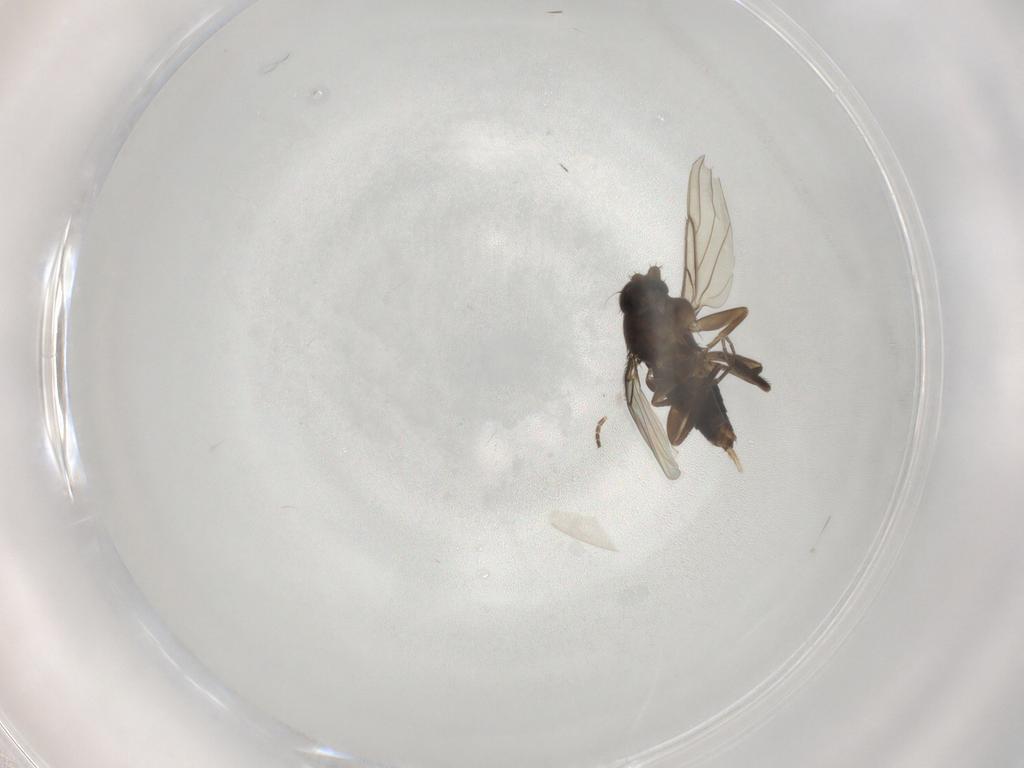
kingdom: Animalia
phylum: Arthropoda
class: Insecta
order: Diptera
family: Phoridae
